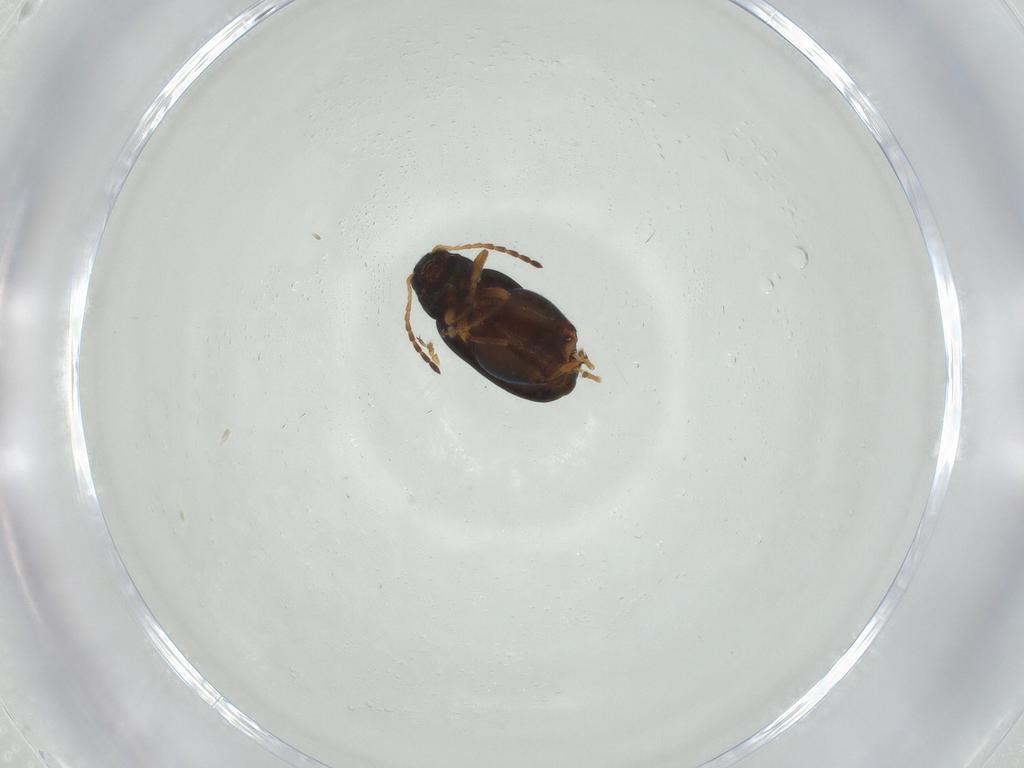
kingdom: Animalia
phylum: Arthropoda
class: Insecta
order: Coleoptera
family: Chrysomelidae
